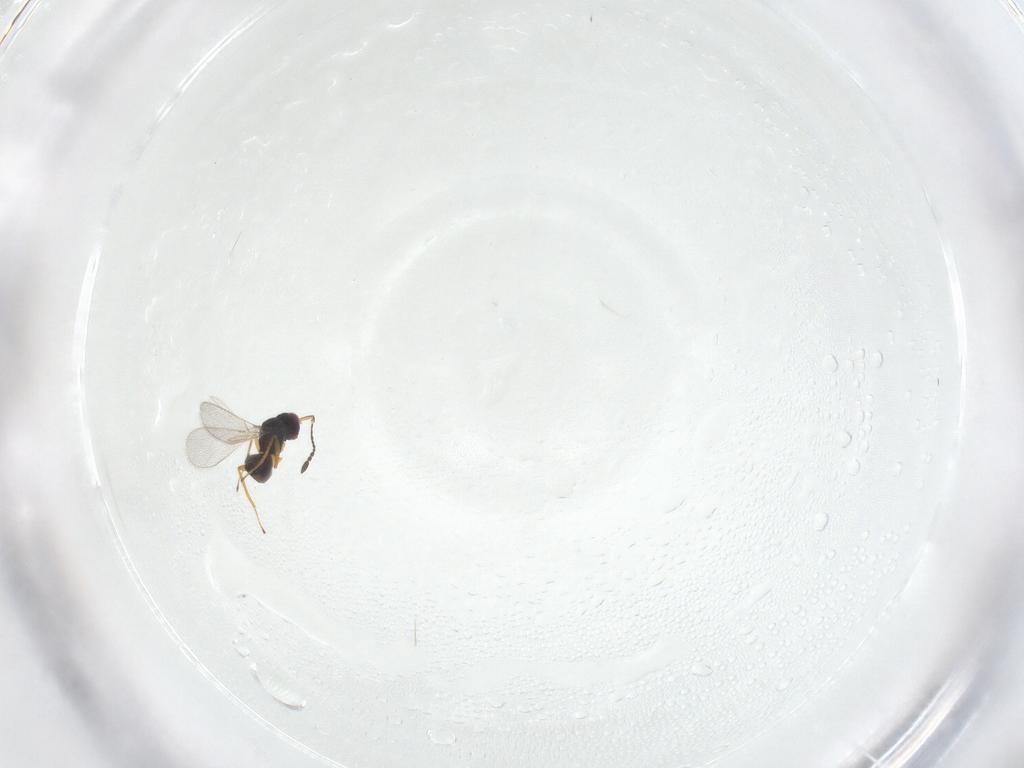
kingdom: Animalia
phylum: Arthropoda
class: Insecta
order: Hymenoptera
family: Mymaridae
